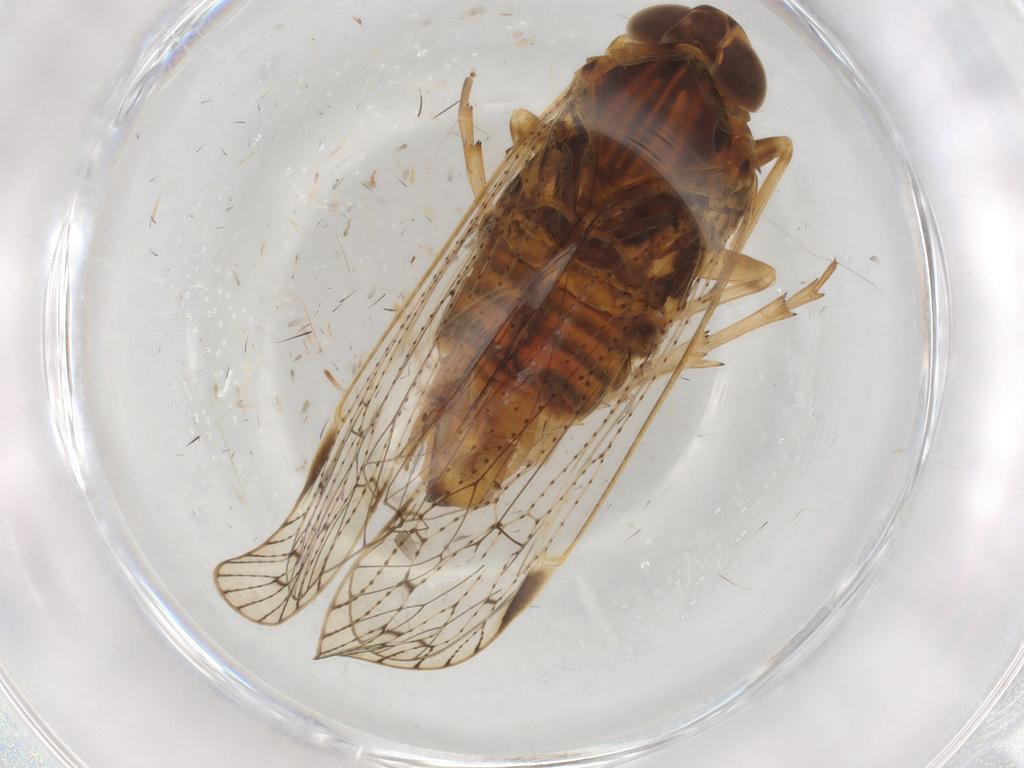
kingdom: Animalia
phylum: Arthropoda
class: Insecta
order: Hemiptera
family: Cixiidae
